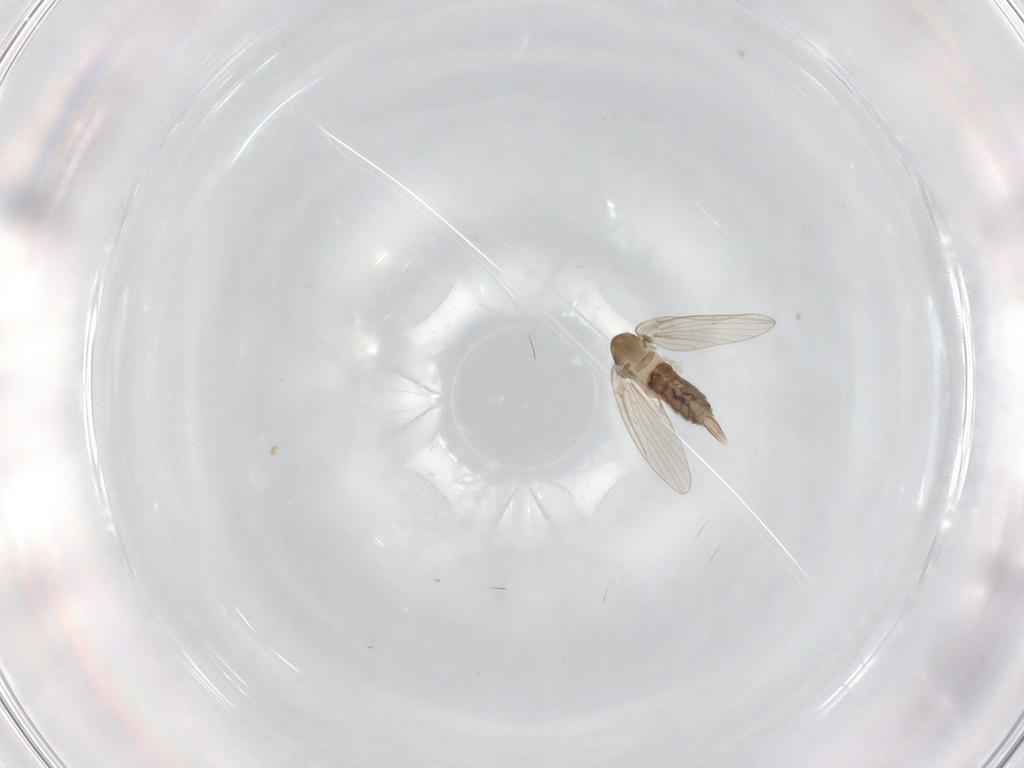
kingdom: Animalia
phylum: Arthropoda
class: Insecta
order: Diptera
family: Psychodidae
